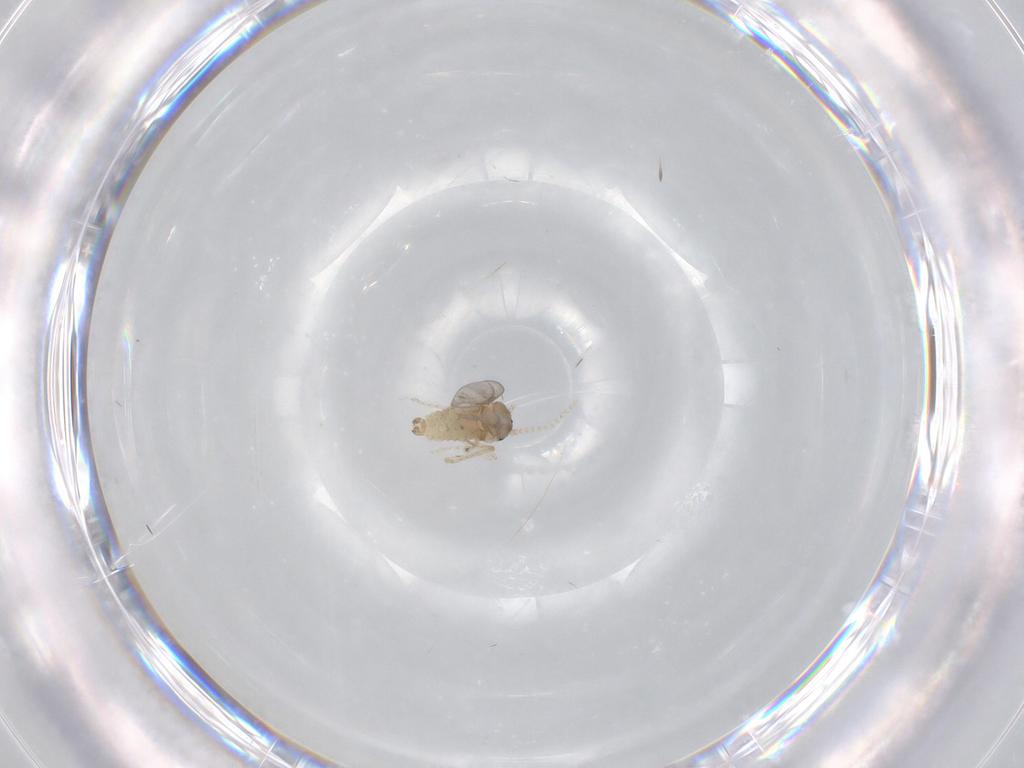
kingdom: Animalia
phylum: Arthropoda
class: Insecta
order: Diptera
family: Cecidomyiidae
